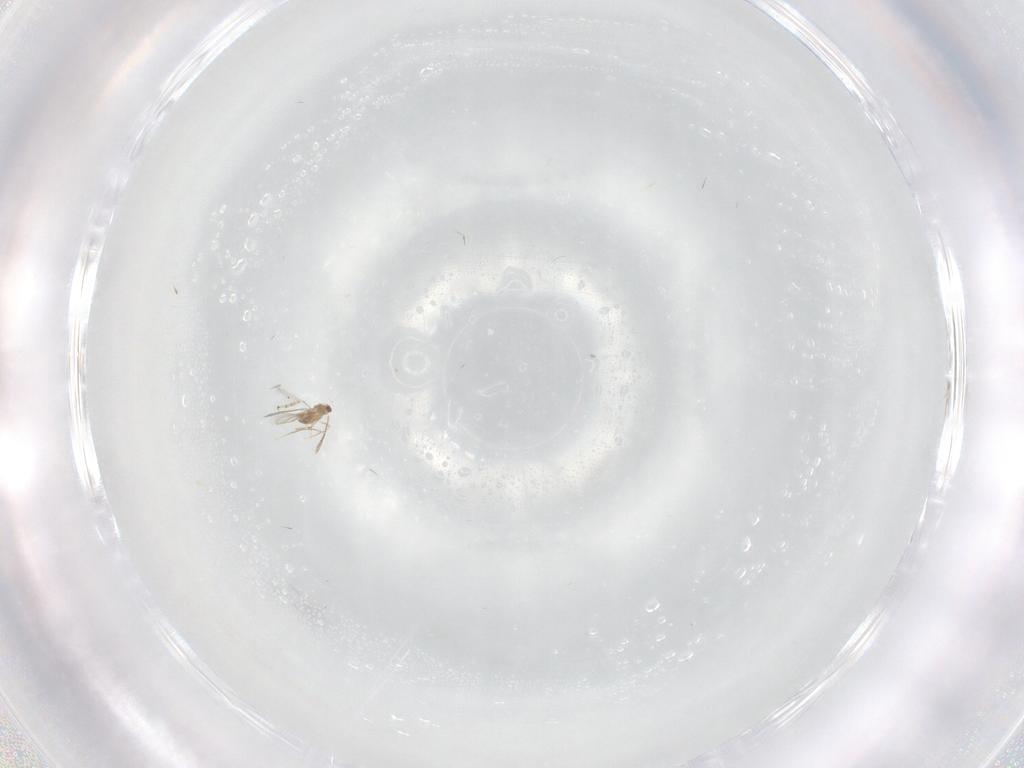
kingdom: Animalia
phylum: Arthropoda
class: Insecta
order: Hymenoptera
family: Mymaridae
